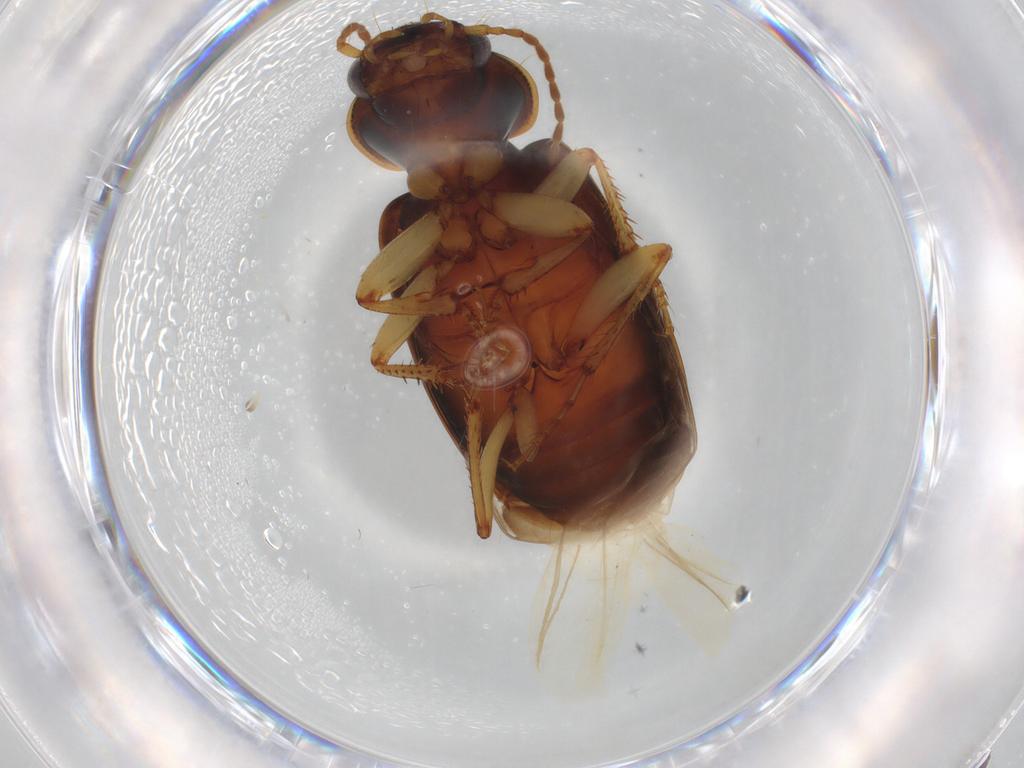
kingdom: Animalia
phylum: Arthropoda
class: Insecta
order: Coleoptera
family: Carabidae
